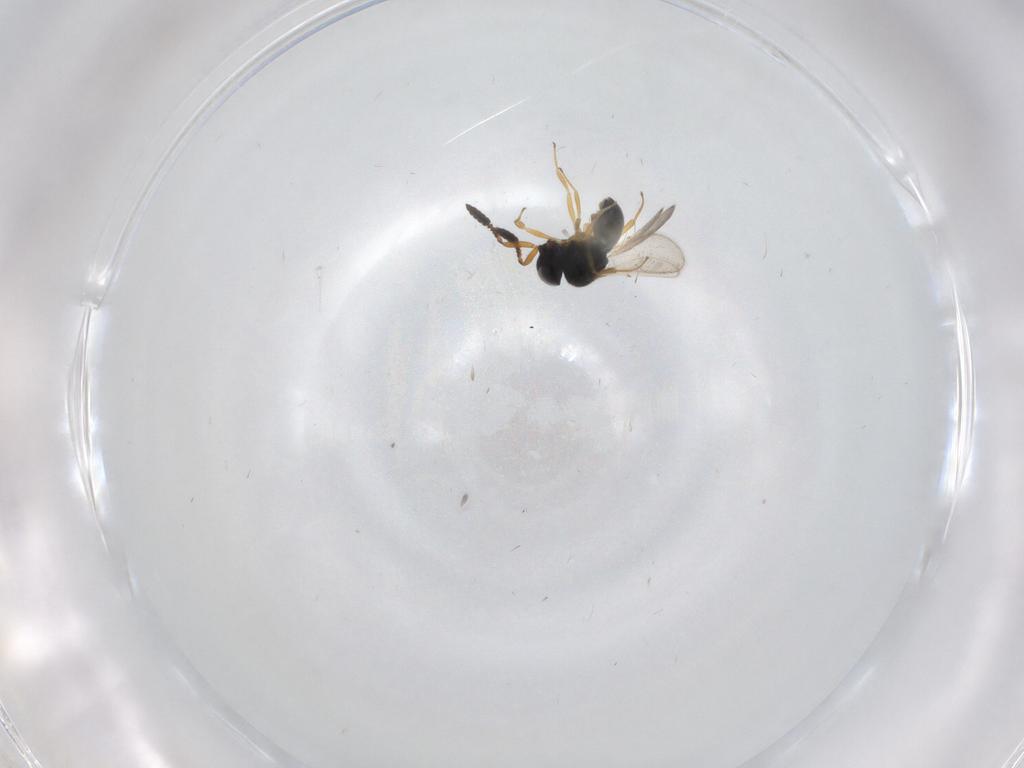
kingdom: Animalia
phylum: Arthropoda
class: Insecta
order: Hymenoptera
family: Scelionidae
